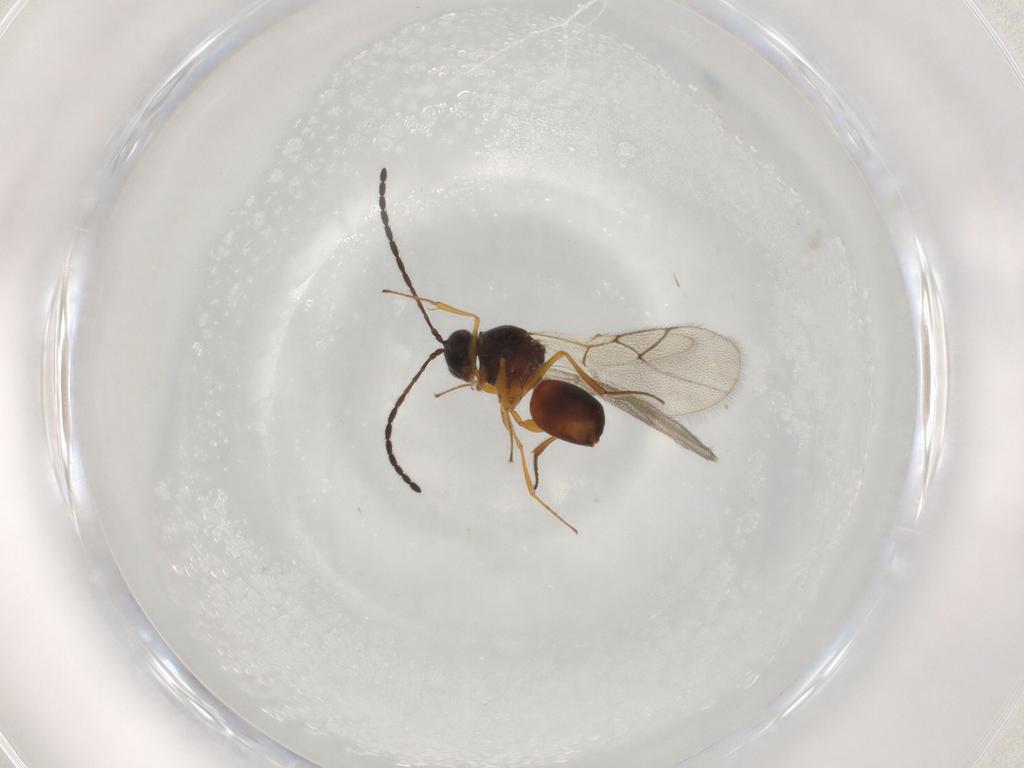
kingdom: Animalia
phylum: Arthropoda
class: Insecta
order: Hymenoptera
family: Figitidae
